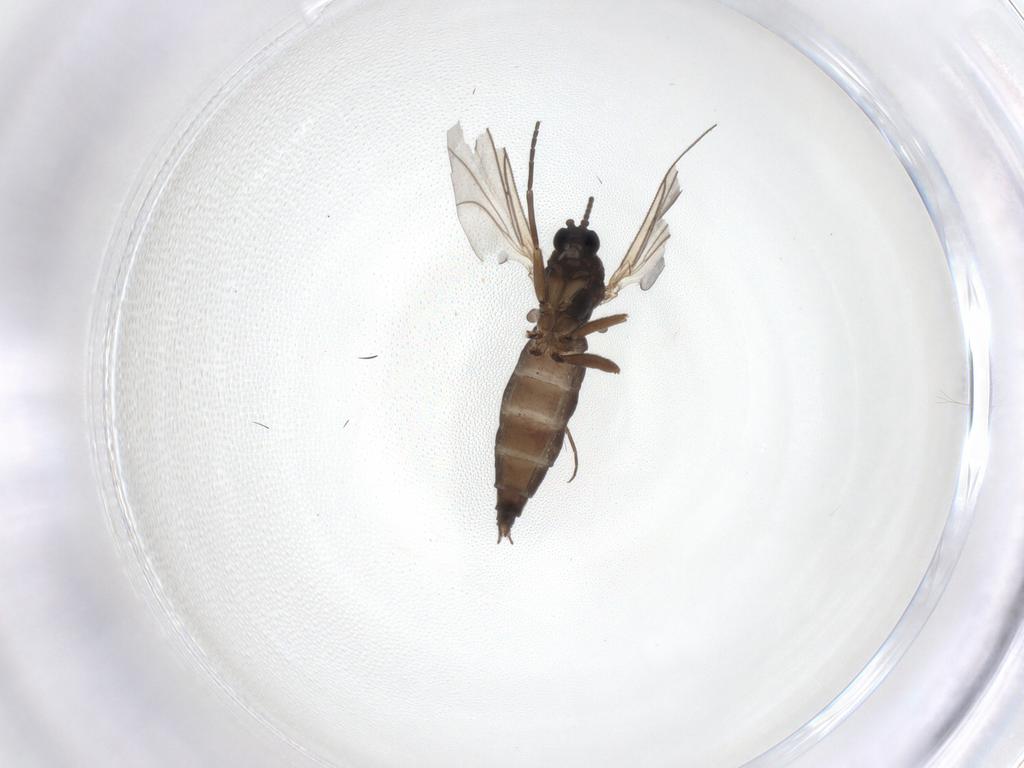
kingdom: Animalia
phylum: Arthropoda
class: Insecta
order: Diptera
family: Sciaridae
